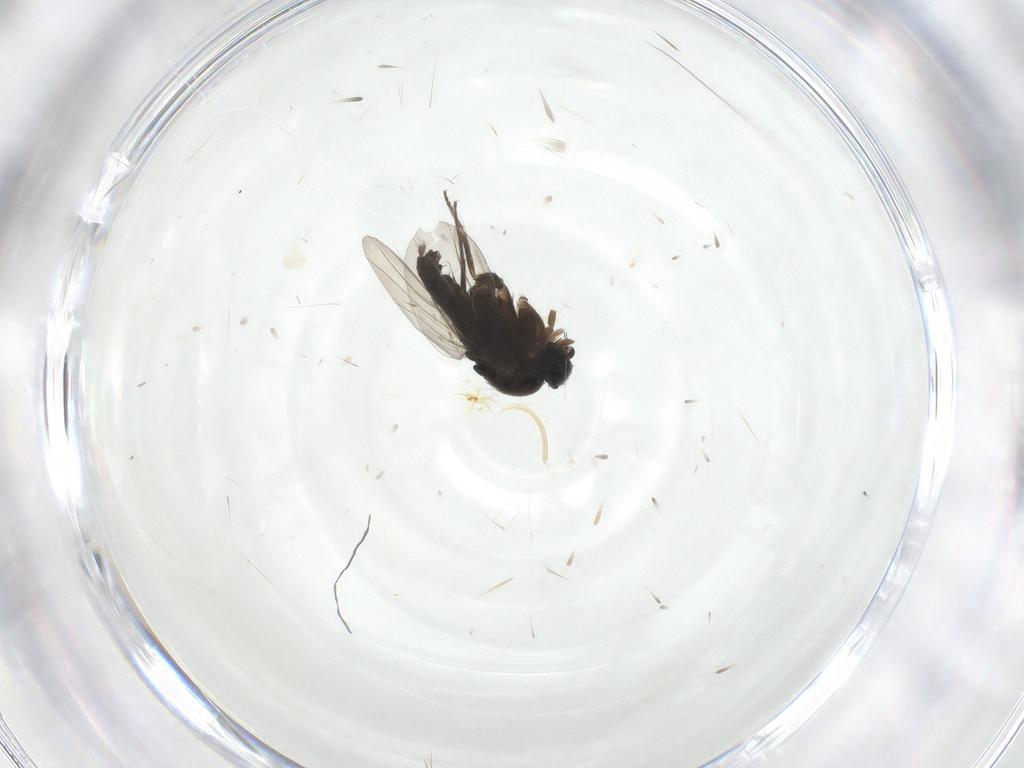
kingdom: Animalia
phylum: Arthropoda
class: Insecta
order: Diptera
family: Phoridae
